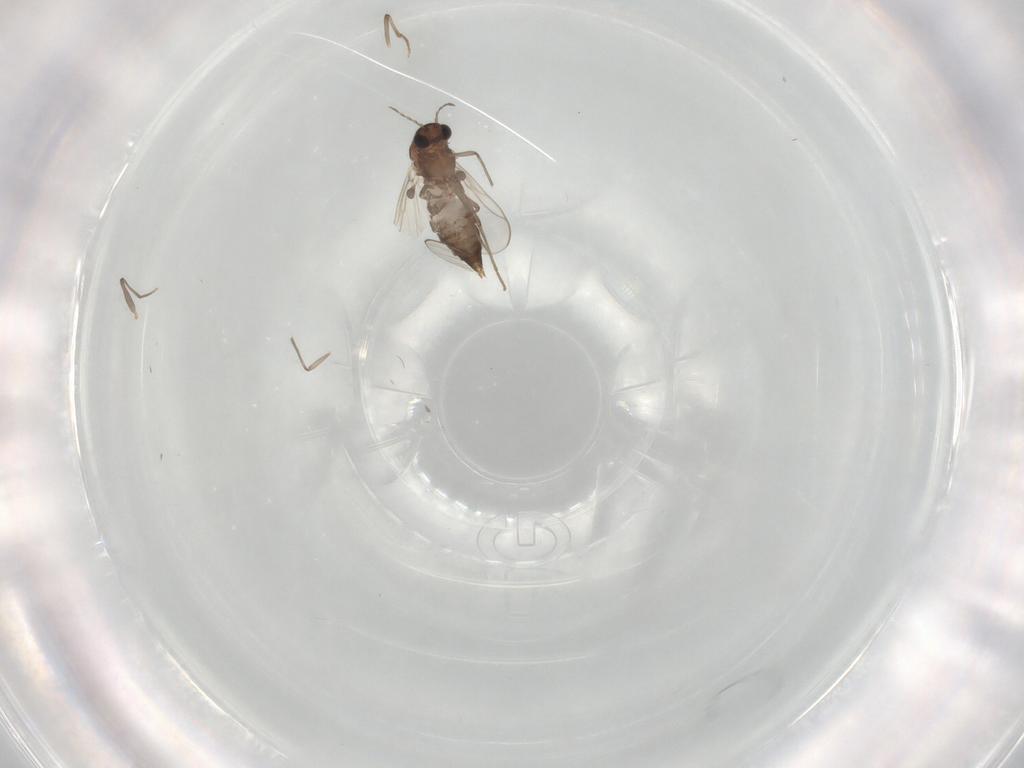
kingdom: Animalia
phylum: Arthropoda
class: Insecta
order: Diptera
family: Chironomidae
